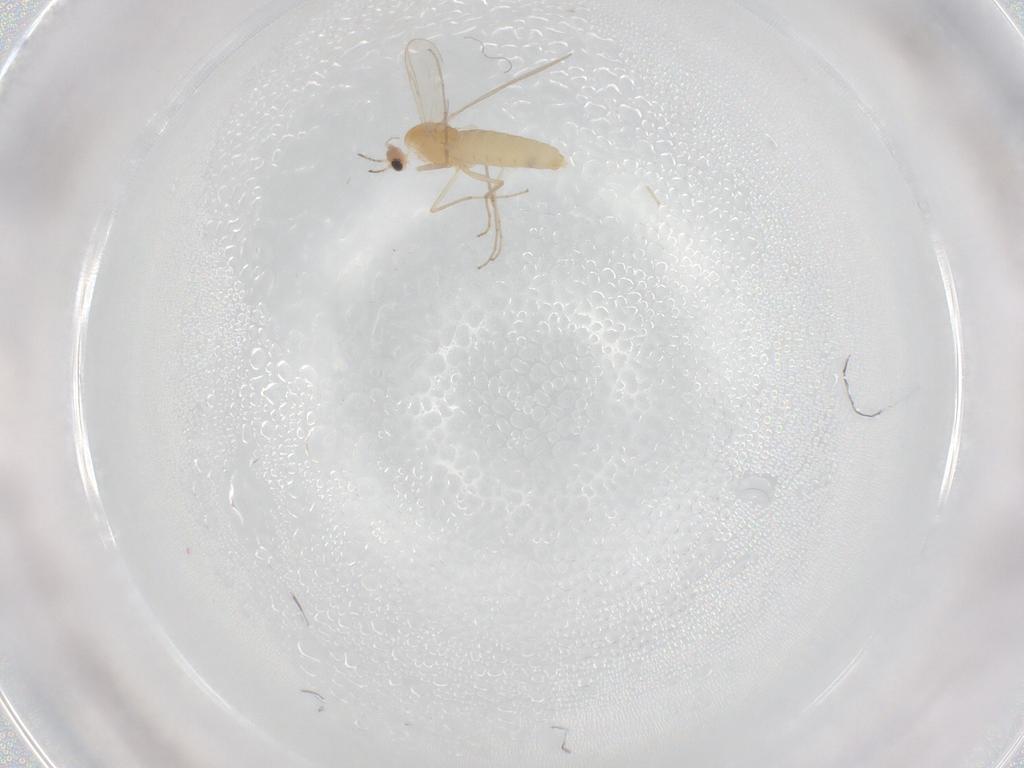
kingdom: Animalia
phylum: Arthropoda
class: Insecta
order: Diptera
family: Chironomidae
